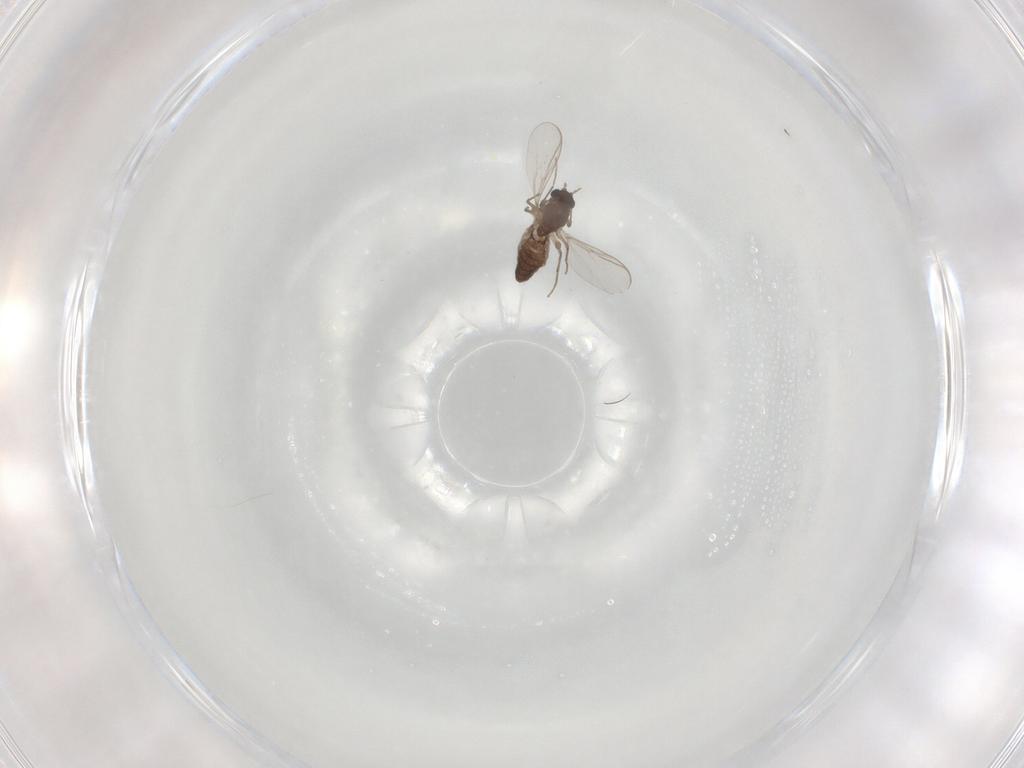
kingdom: Animalia
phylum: Arthropoda
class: Insecta
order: Diptera
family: Chironomidae
